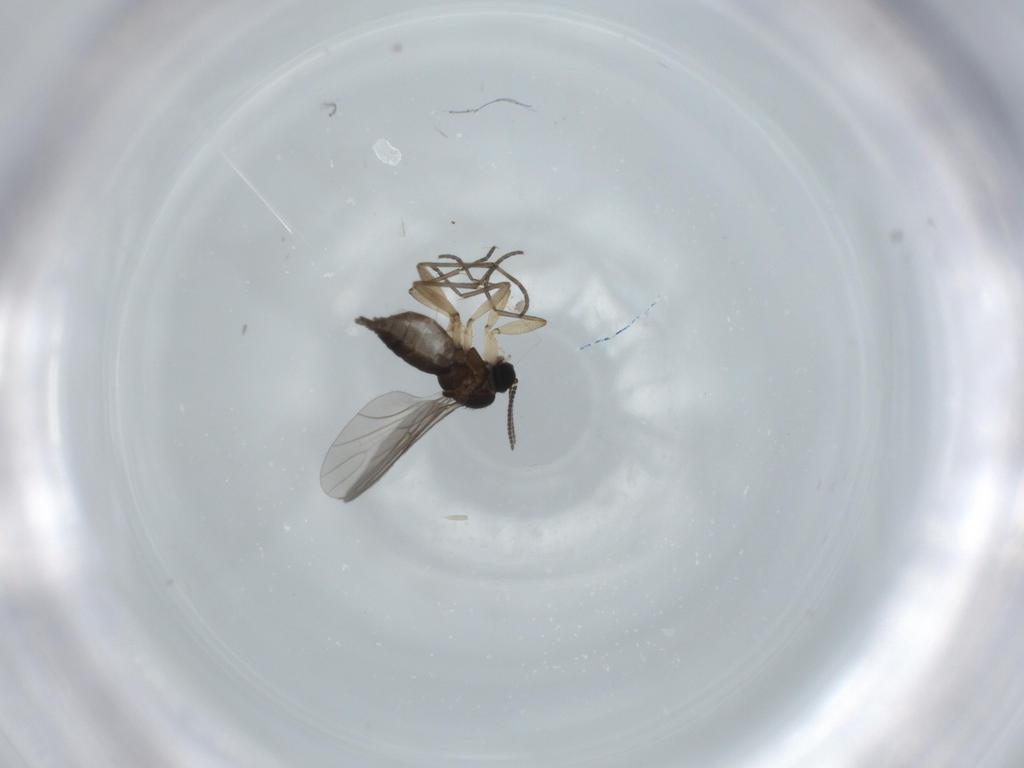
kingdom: Animalia
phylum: Arthropoda
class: Insecta
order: Diptera
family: Sciaridae
